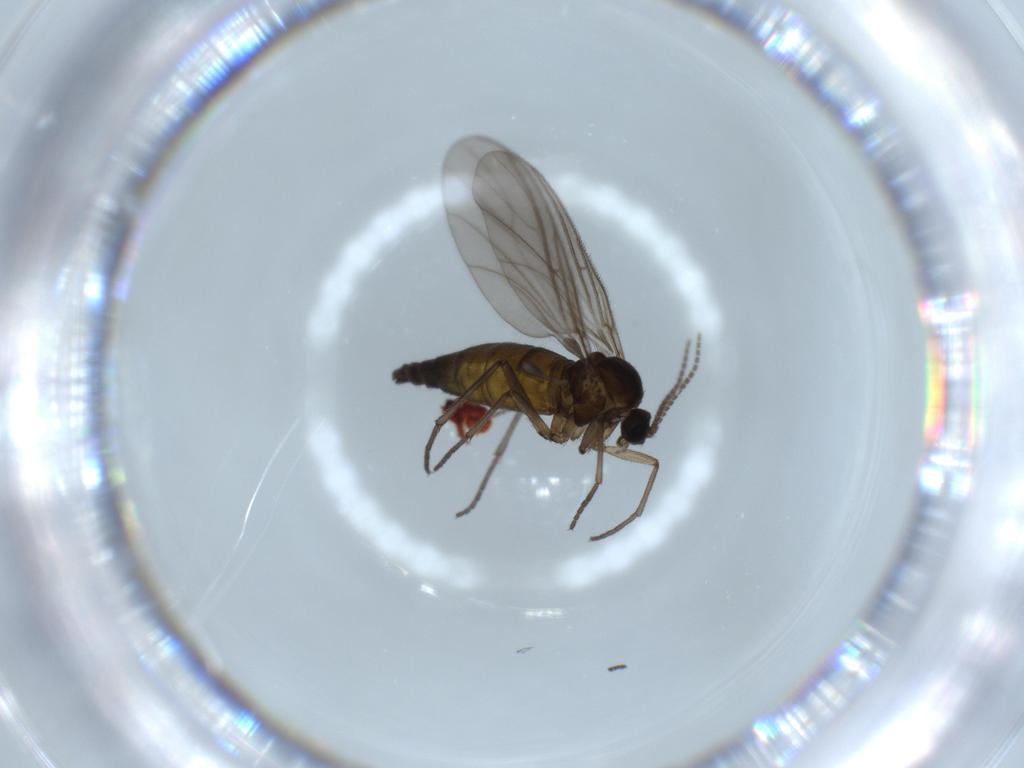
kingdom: Animalia
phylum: Arthropoda
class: Insecta
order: Diptera
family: Sciaridae
